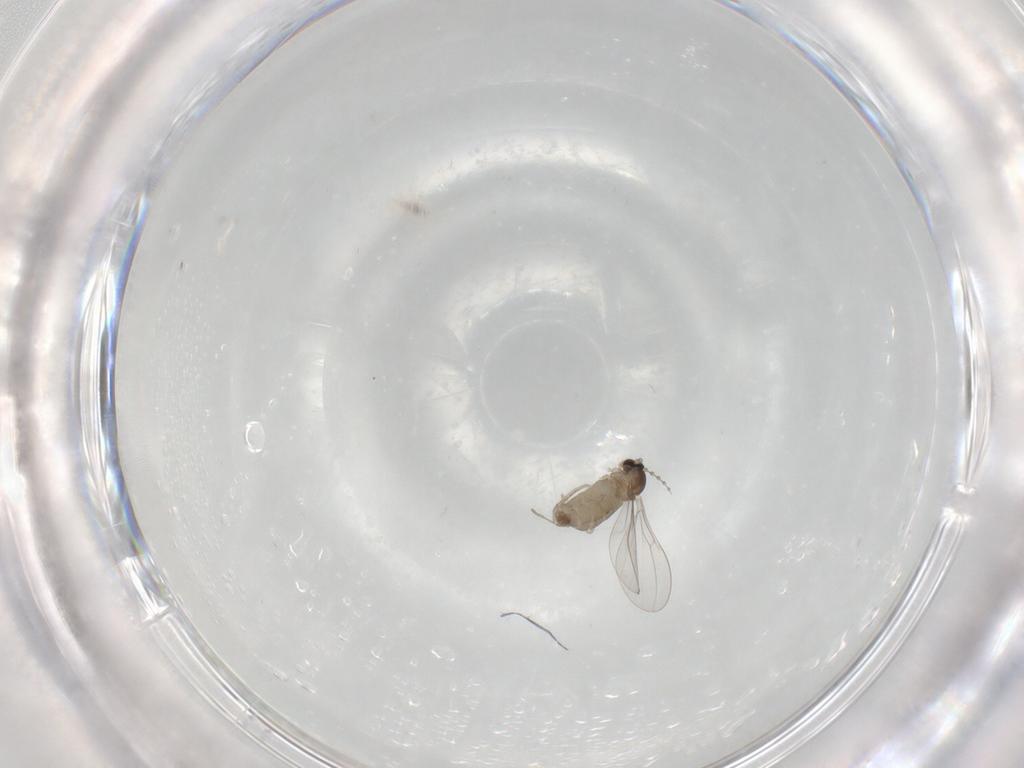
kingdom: Animalia
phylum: Arthropoda
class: Insecta
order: Diptera
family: Cecidomyiidae
